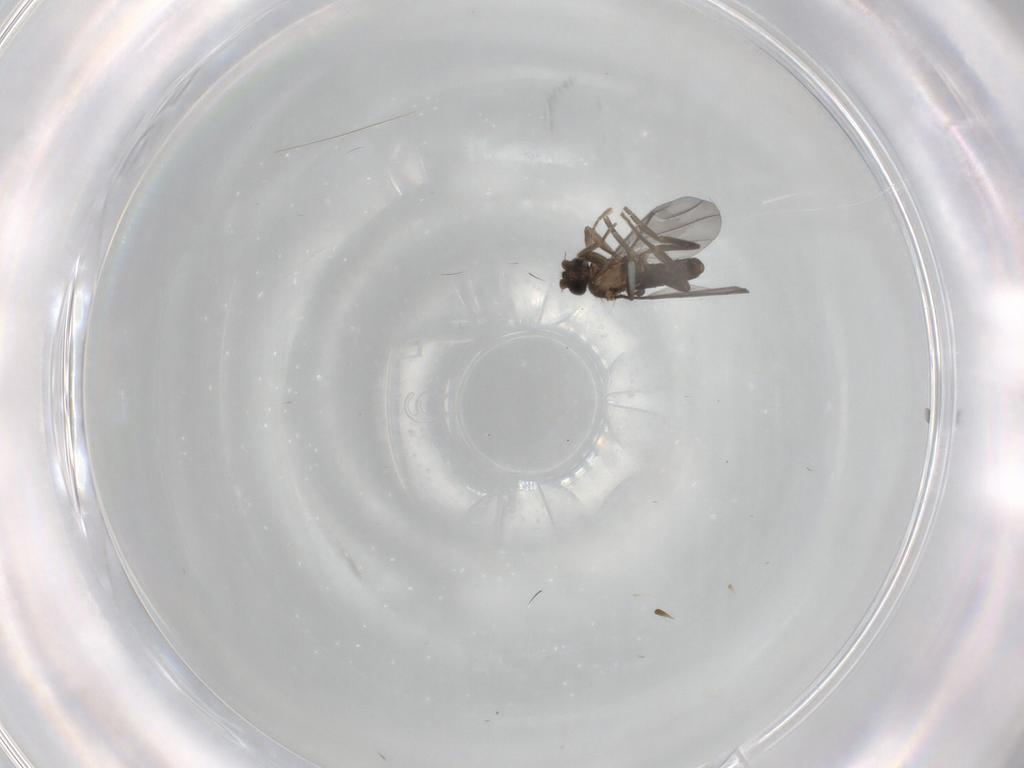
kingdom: Animalia
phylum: Arthropoda
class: Insecta
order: Diptera
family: Phoridae
